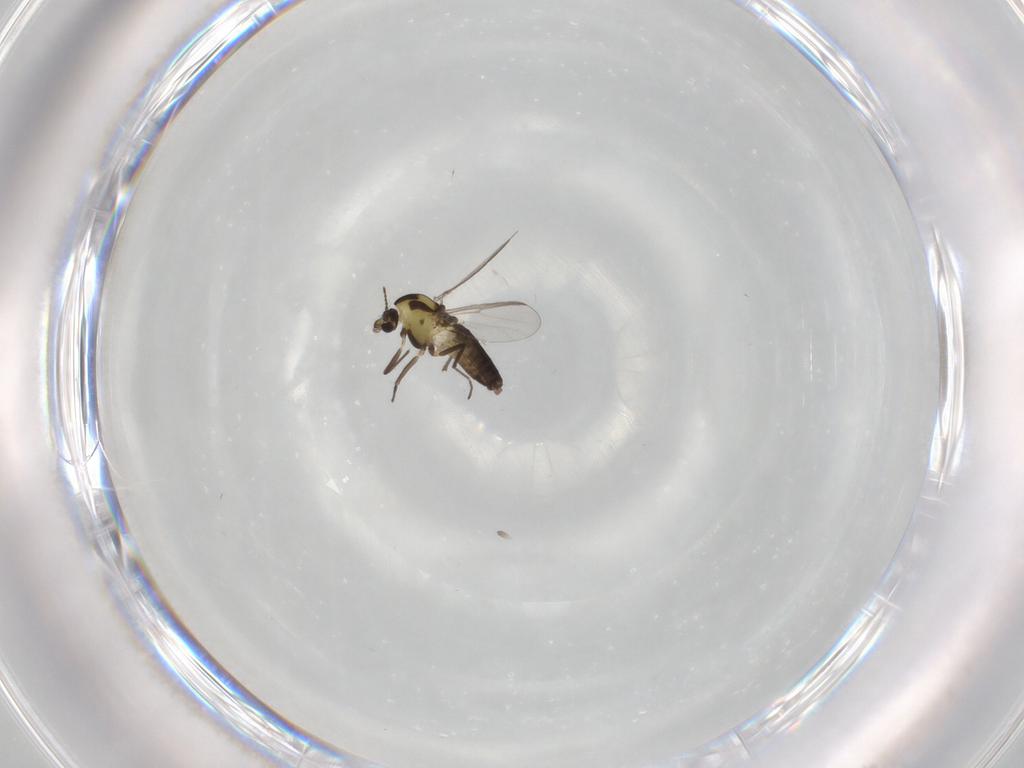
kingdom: Animalia
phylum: Arthropoda
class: Insecta
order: Diptera
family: Chironomidae
